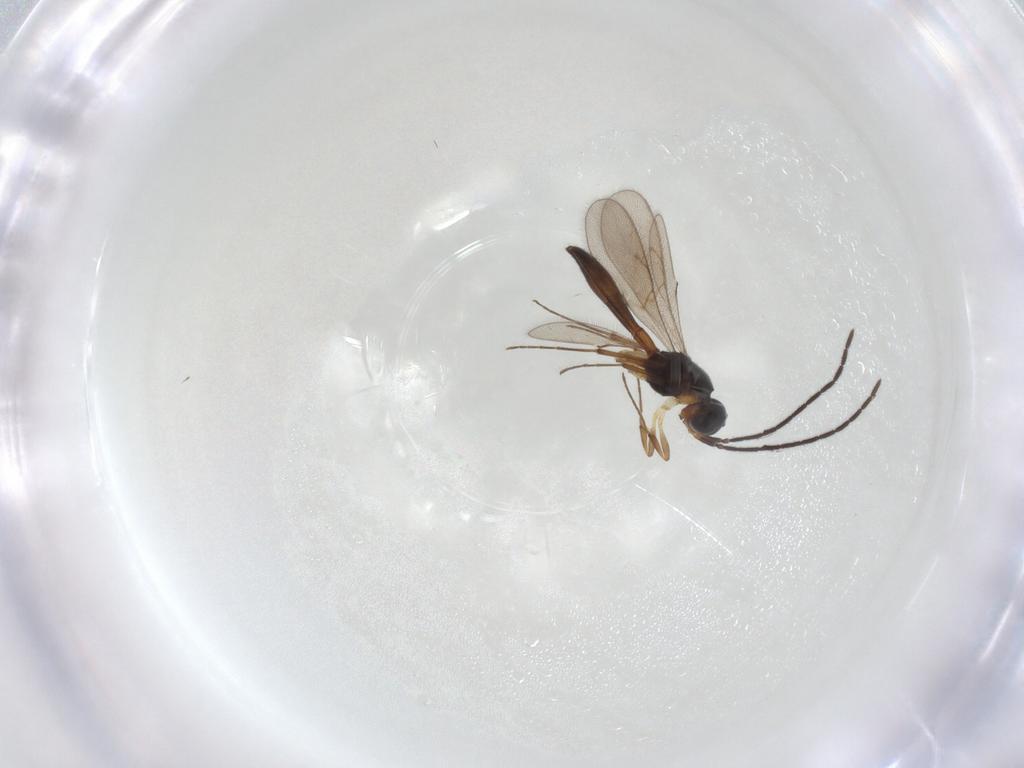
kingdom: Animalia
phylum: Arthropoda
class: Insecta
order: Hymenoptera
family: Scelionidae
